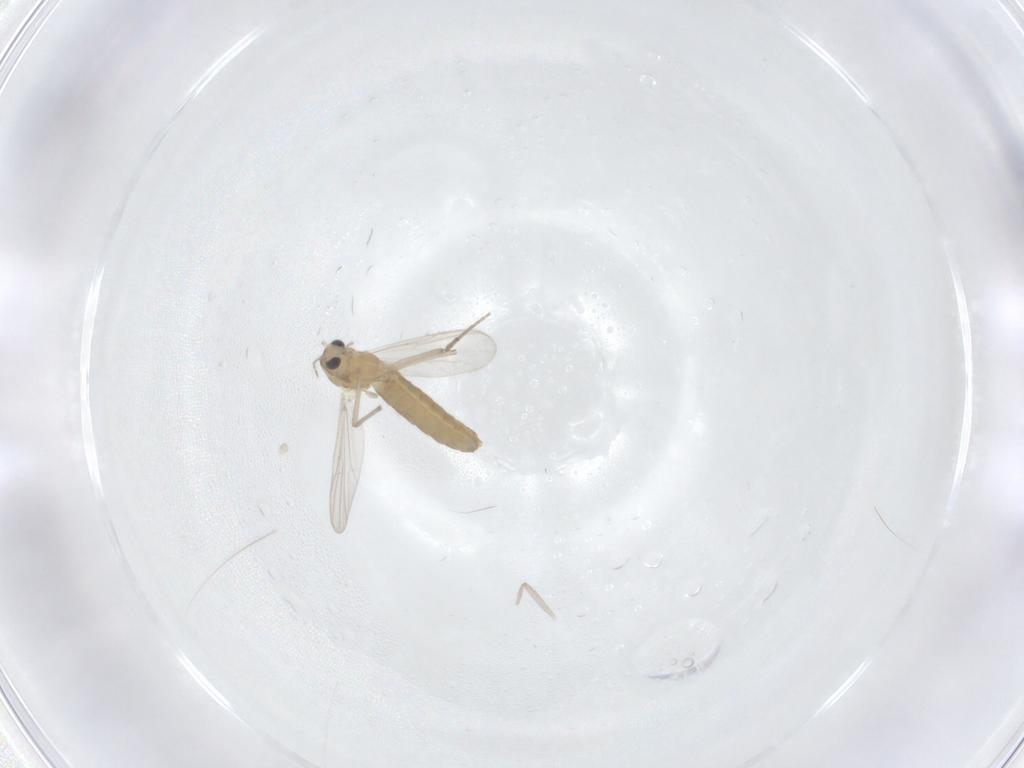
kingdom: Animalia
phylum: Arthropoda
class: Insecta
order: Diptera
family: Chironomidae
